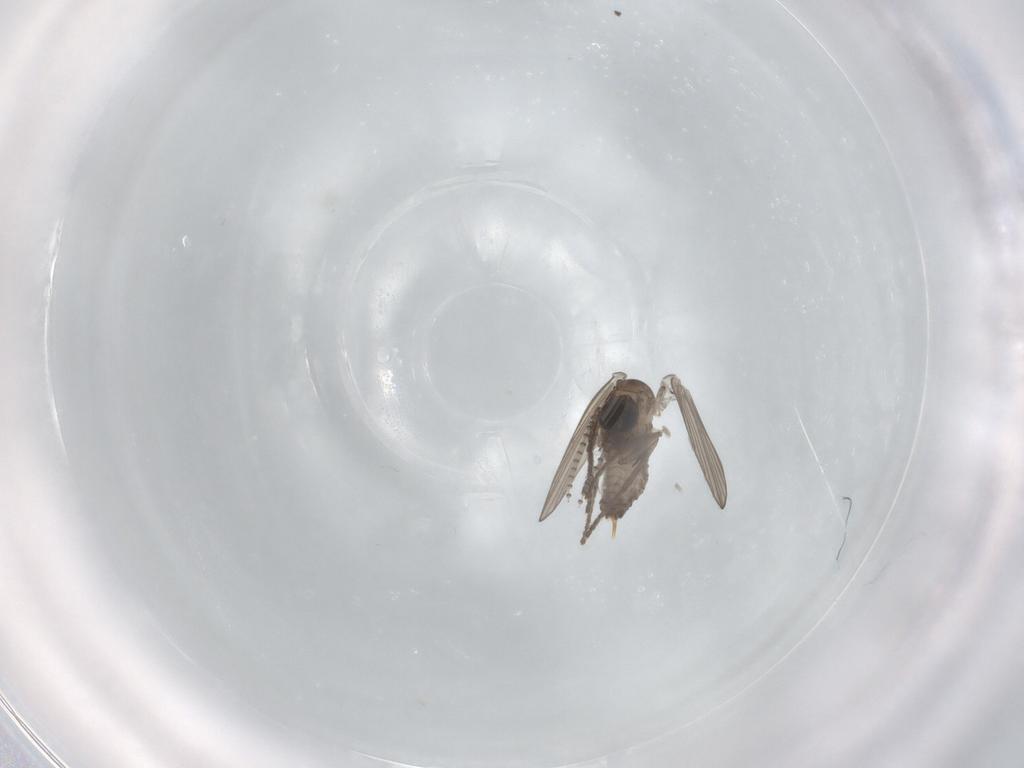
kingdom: Animalia
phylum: Arthropoda
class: Insecta
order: Diptera
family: Psychodidae
